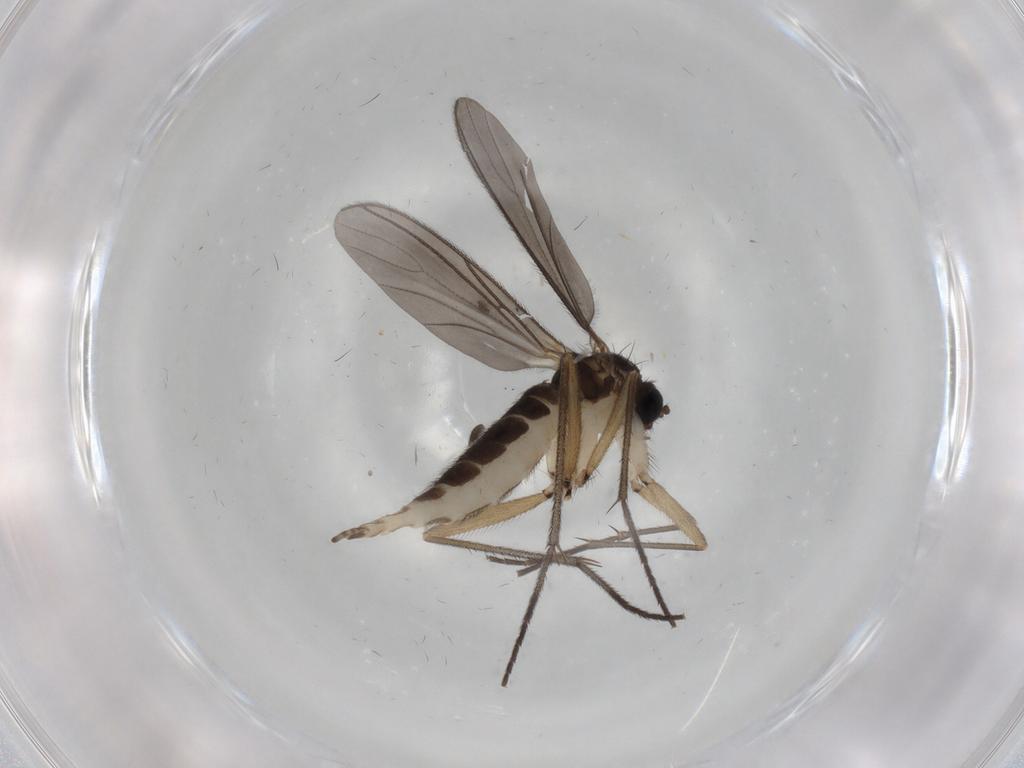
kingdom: Animalia
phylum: Arthropoda
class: Insecta
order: Diptera
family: Sciaridae
